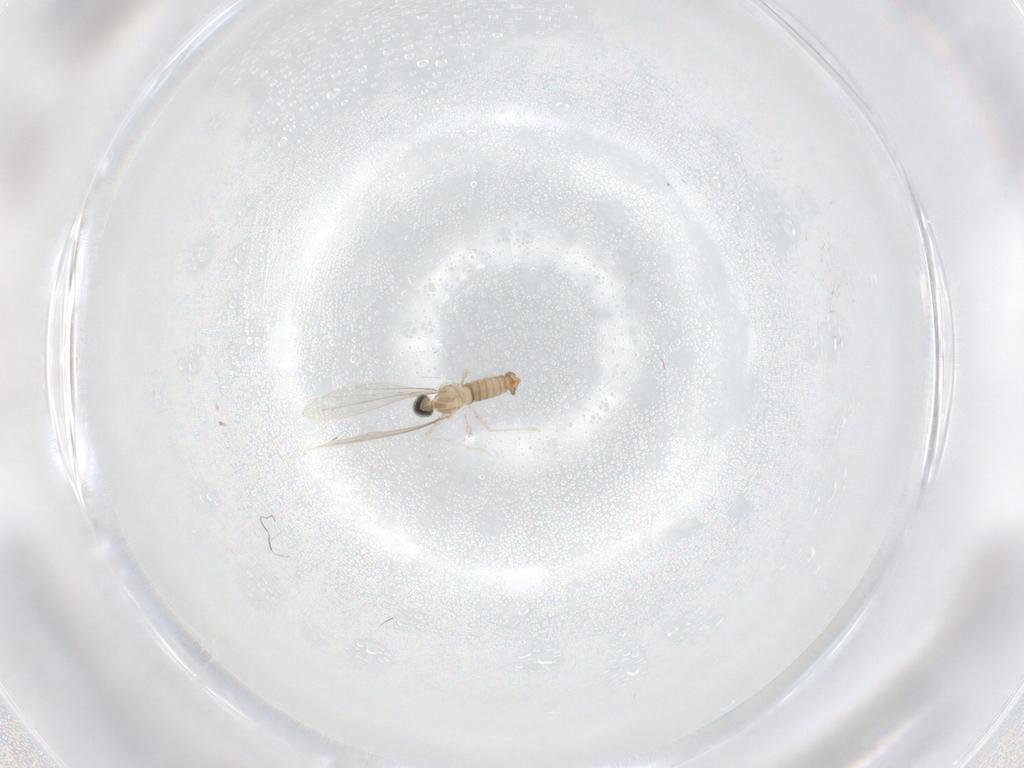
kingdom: Animalia
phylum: Arthropoda
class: Insecta
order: Diptera
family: Cecidomyiidae
